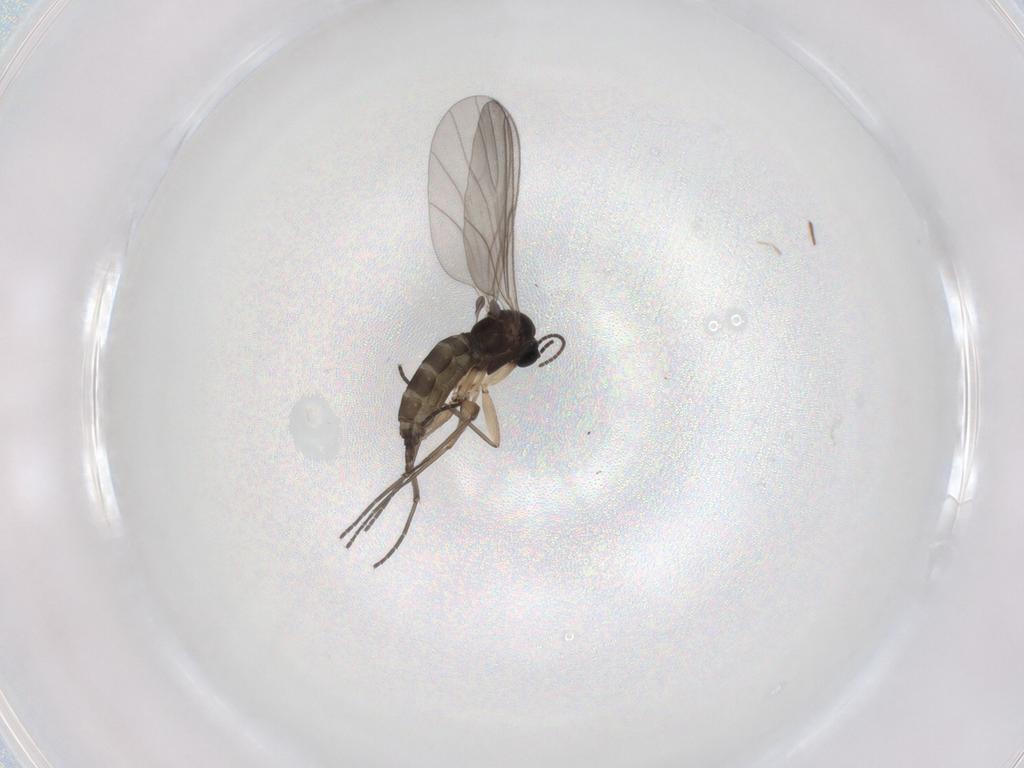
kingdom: Animalia
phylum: Arthropoda
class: Insecta
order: Diptera
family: Sciaridae
